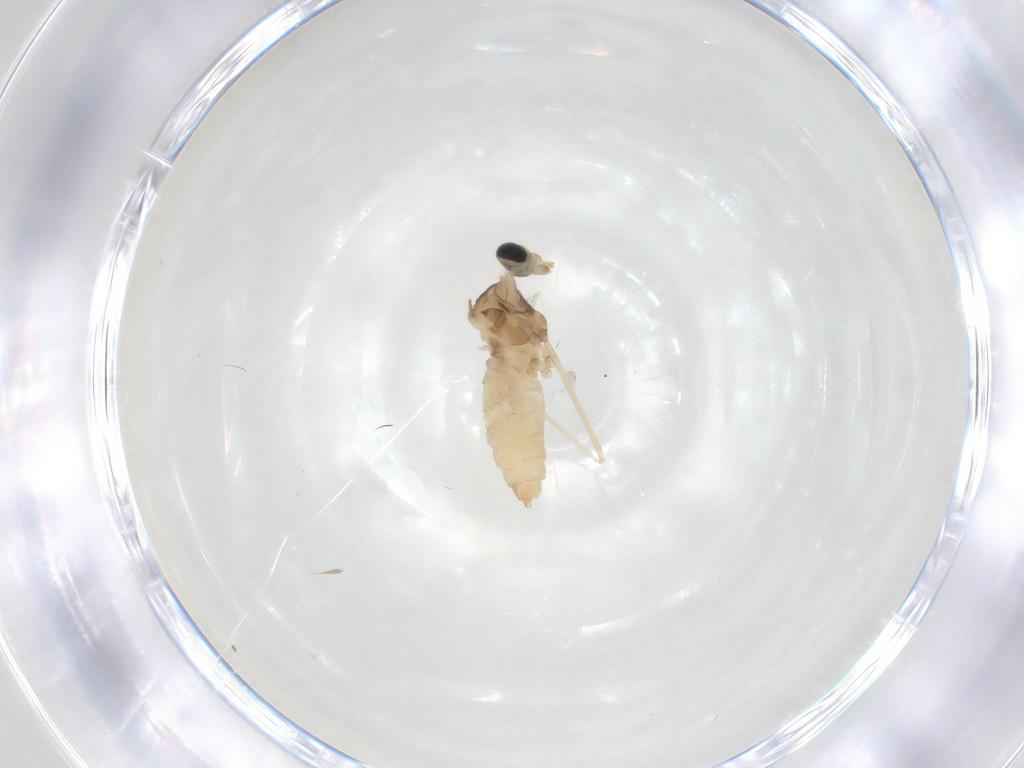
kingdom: Animalia
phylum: Arthropoda
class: Insecta
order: Diptera
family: Cecidomyiidae
